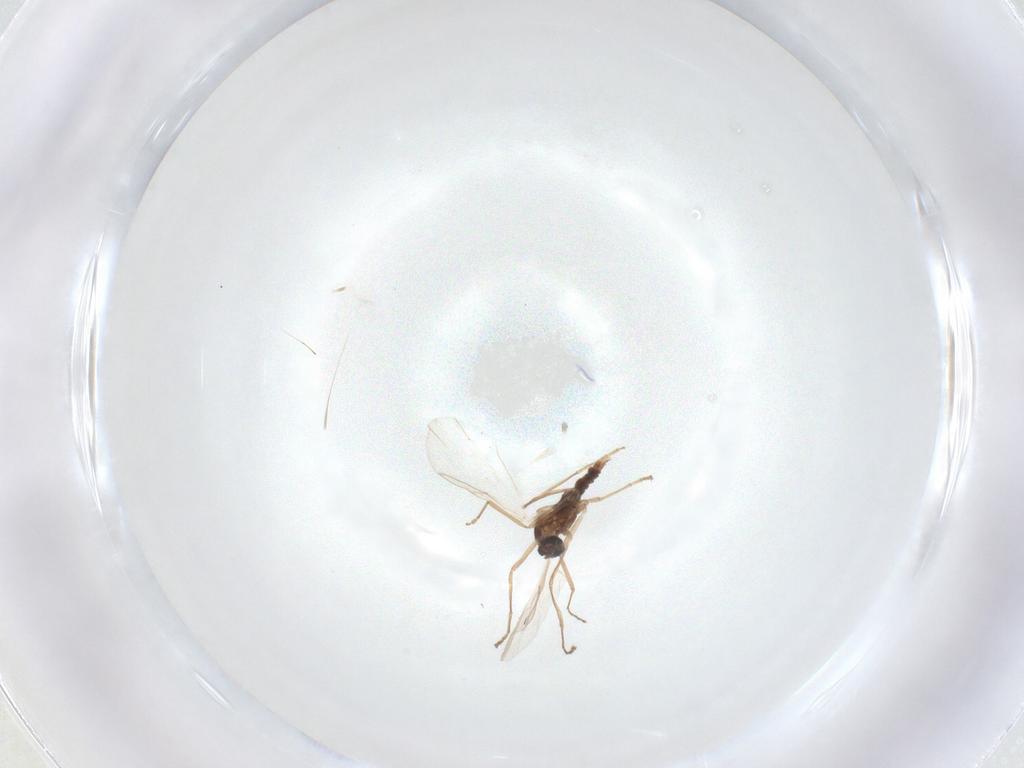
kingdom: Animalia
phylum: Arthropoda
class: Insecta
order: Diptera
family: Cecidomyiidae
